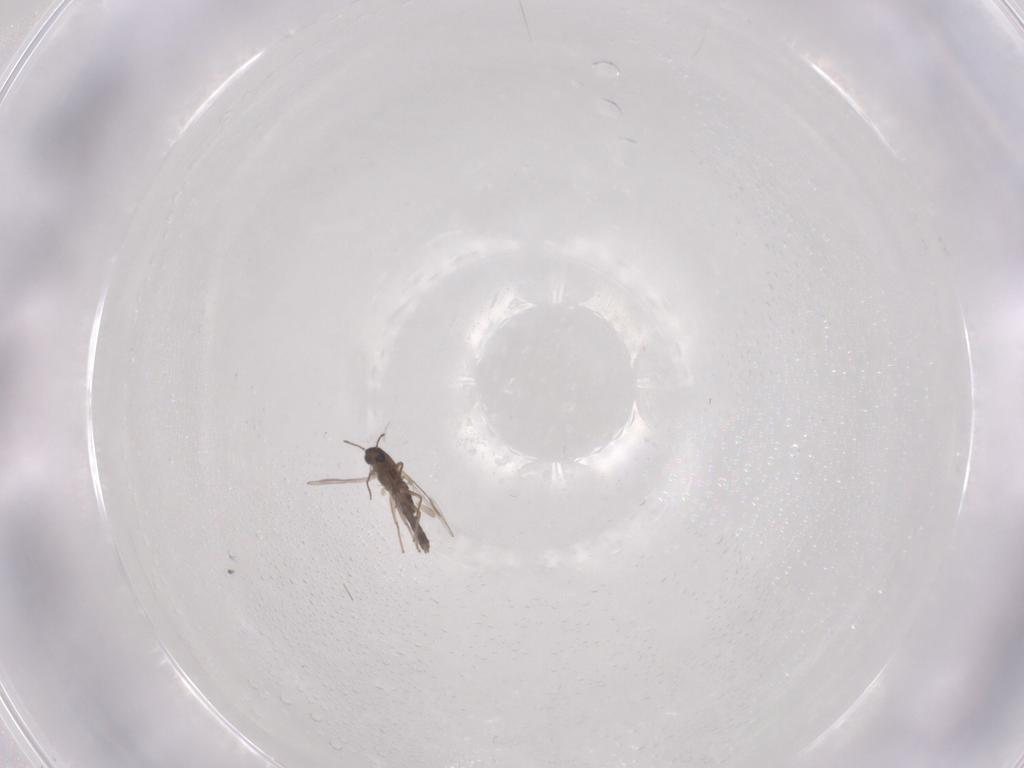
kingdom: Animalia
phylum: Arthropoda
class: Insecta
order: Diptera
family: Chironomidae
